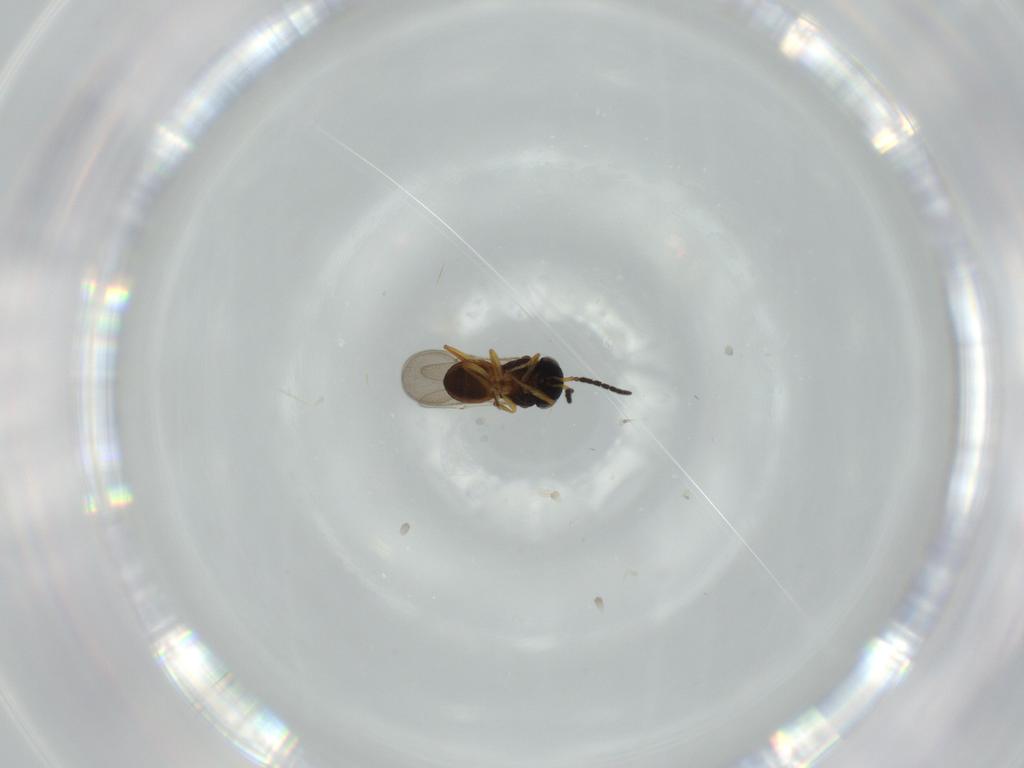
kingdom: Animalia
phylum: Arthropoda
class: Insecta
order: Coleoptera
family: Curculionidae
